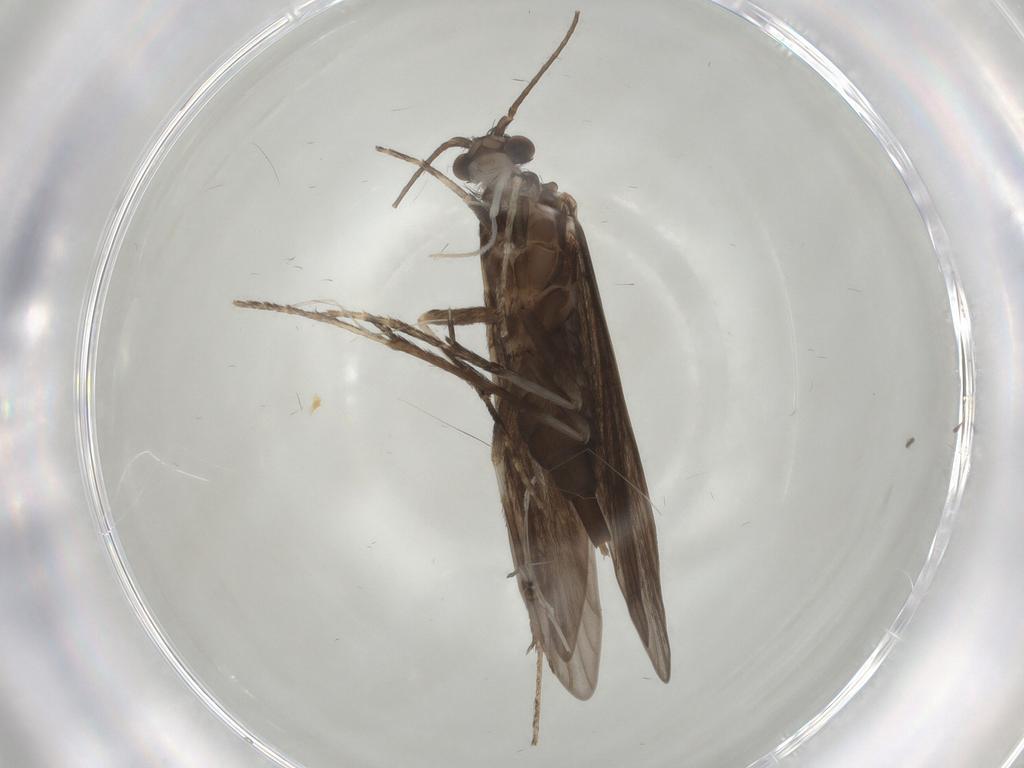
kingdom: Animalia
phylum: Arthropoda
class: Insecta
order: Trichoptera
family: Xiphocentronidae
